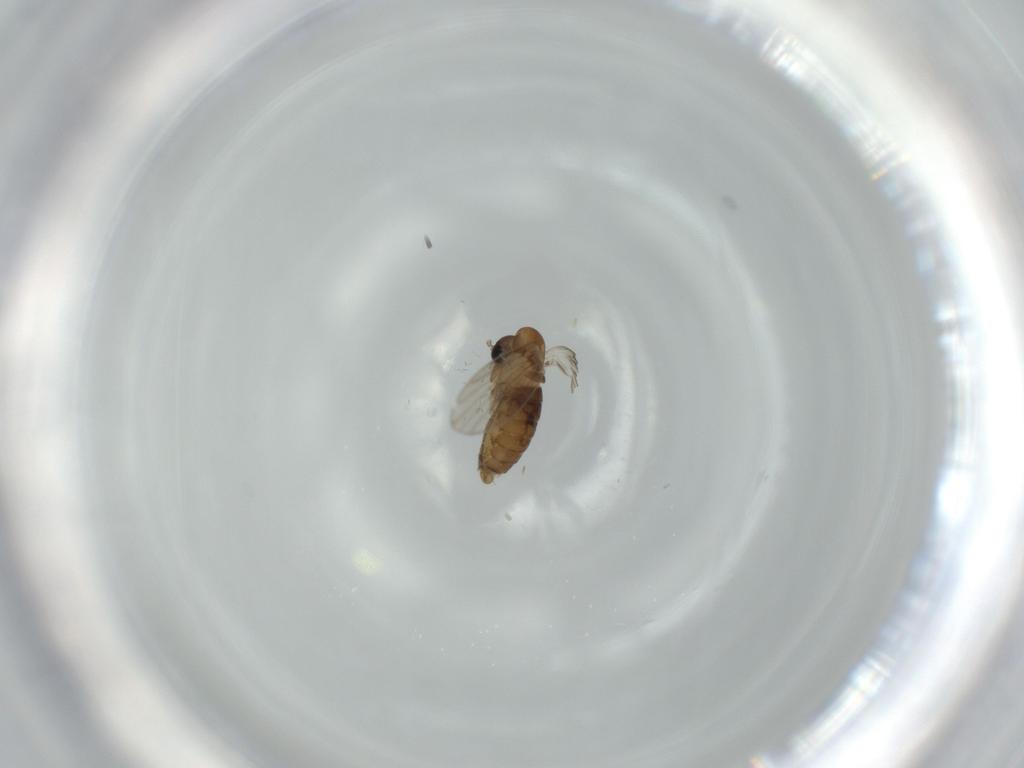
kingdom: Animalia
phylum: Arthropoda
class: Insecta
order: Diptera
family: Psychodidae
